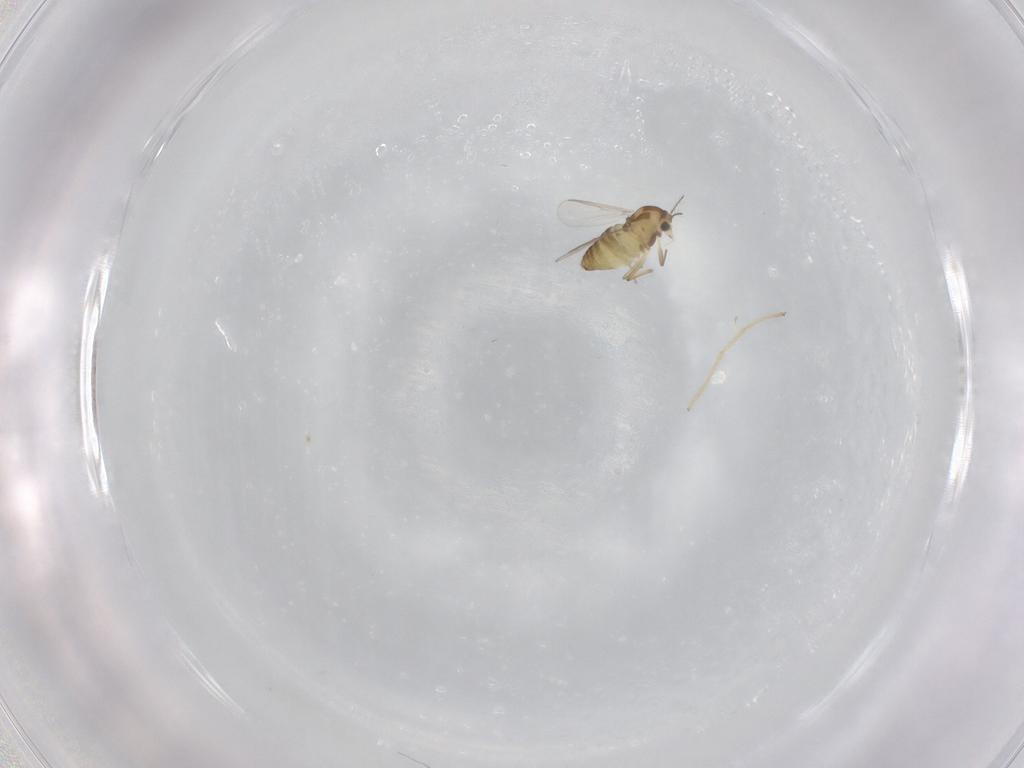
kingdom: Animalia
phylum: Arthropoda
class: Insecta
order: Diptera
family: Chironomidae
